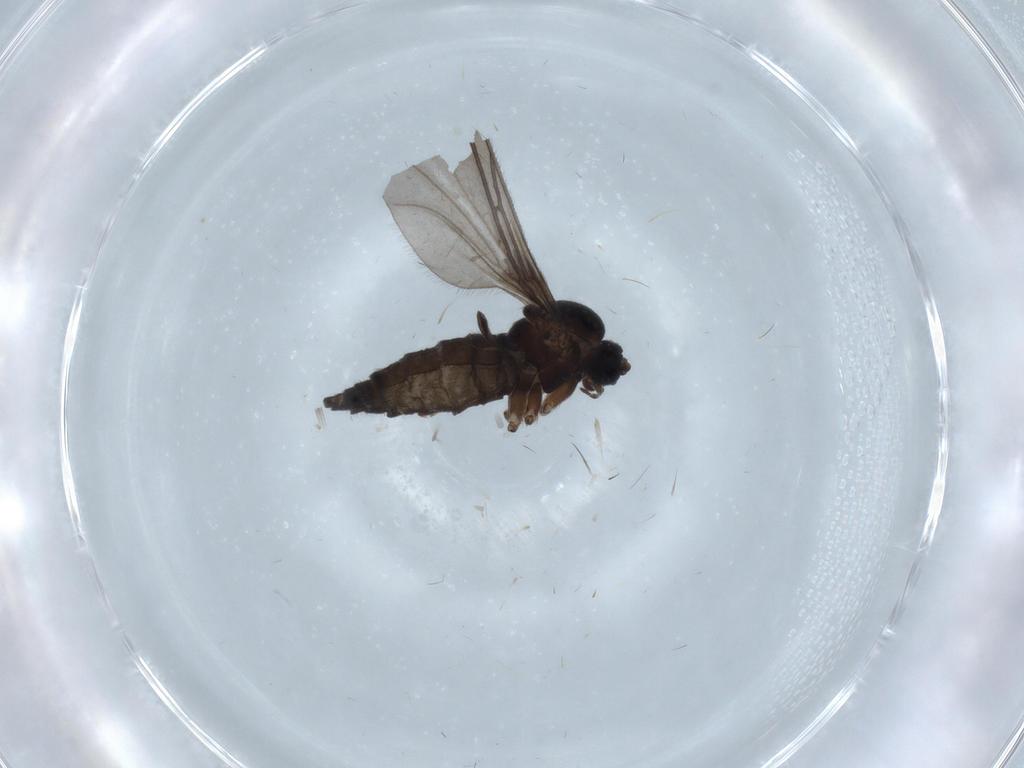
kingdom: Animalia
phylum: Arthropoda
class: Insecta
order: Diptera
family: Sciaridae
